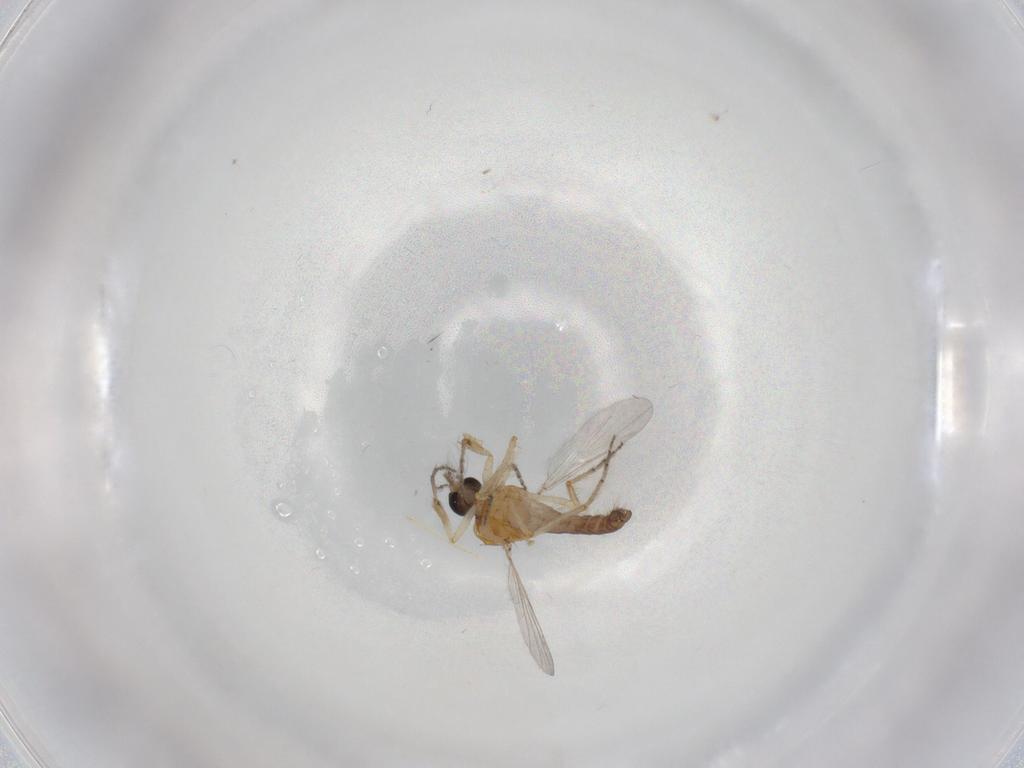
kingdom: Animalia
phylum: Arthropoda
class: Insecta
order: Diptera
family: Ceratopogonidae
